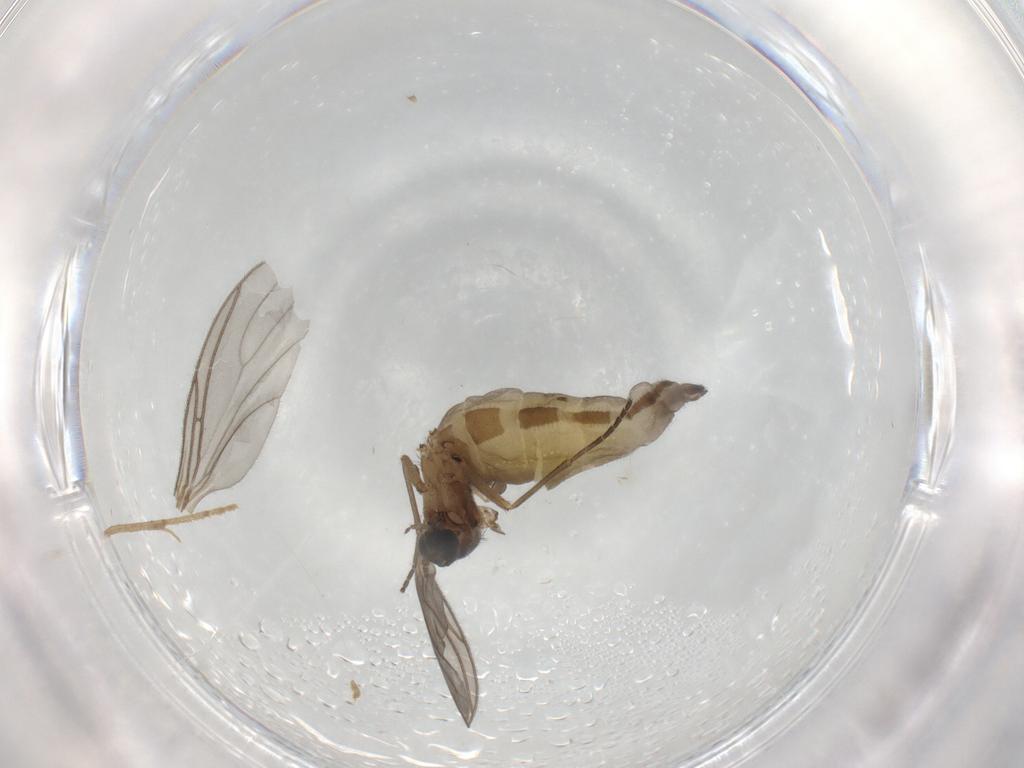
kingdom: Animalia
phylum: Arthropoda
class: Insecta
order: Diptera
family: Sciaridae
